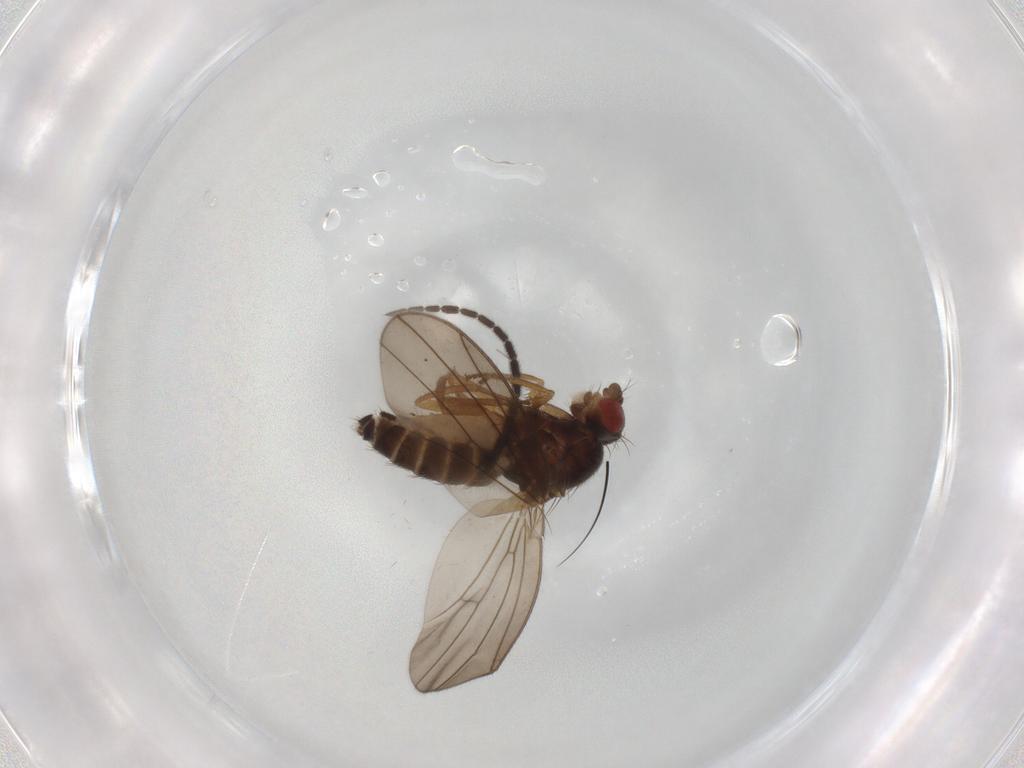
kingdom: Animalia
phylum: Arthropoda
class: Insecta
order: Diptera
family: Drosophilidae
